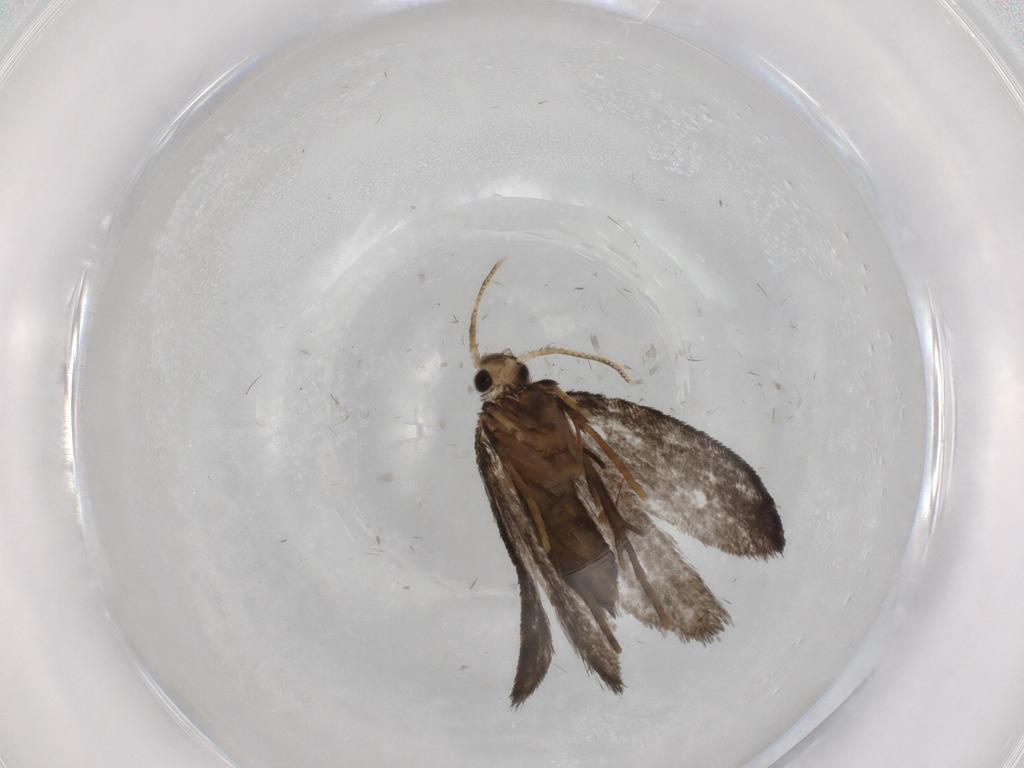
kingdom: Animalia
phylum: Arthropoda
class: Insecta
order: Lepidoptera
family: Psychidae
